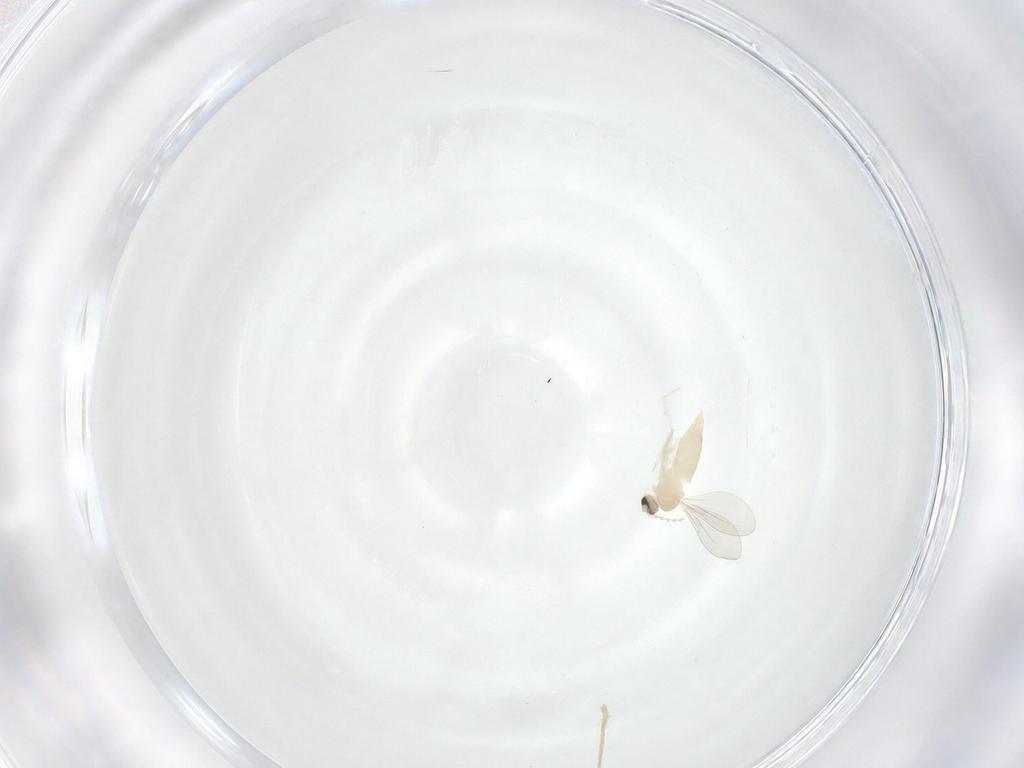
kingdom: Animalia
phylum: Arthropoda
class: Insecta
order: Diptera
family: Cecidomyiidae
